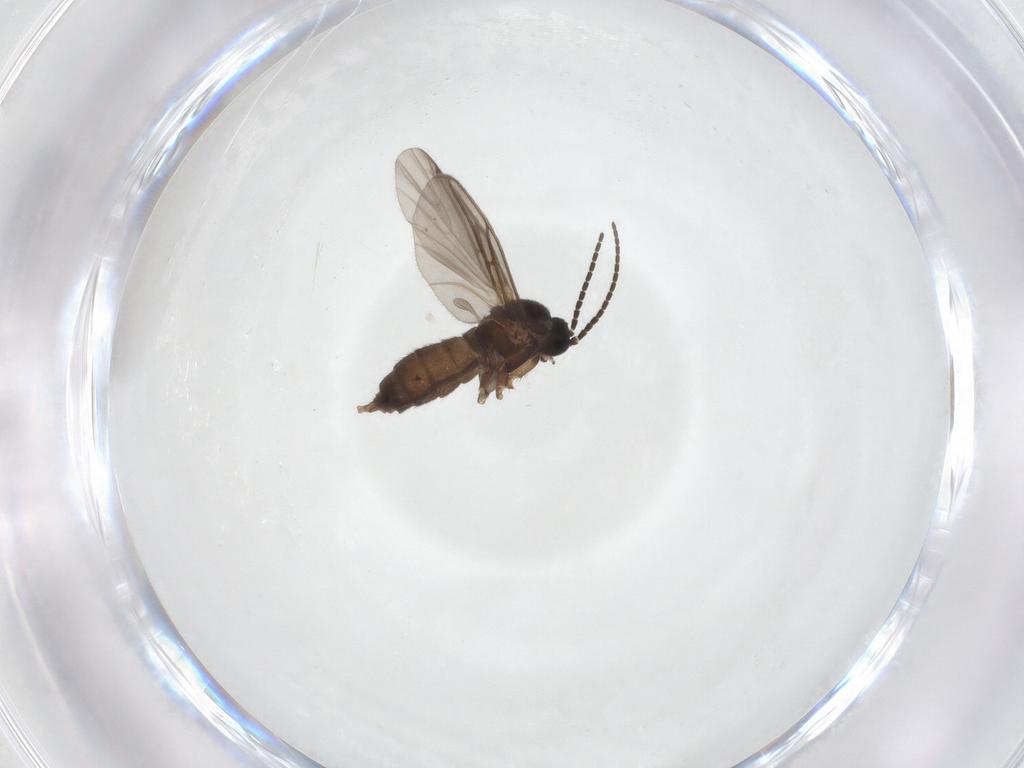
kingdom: Animalia
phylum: Arthropoda
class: Insecta
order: Diptera
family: Sciaridae
